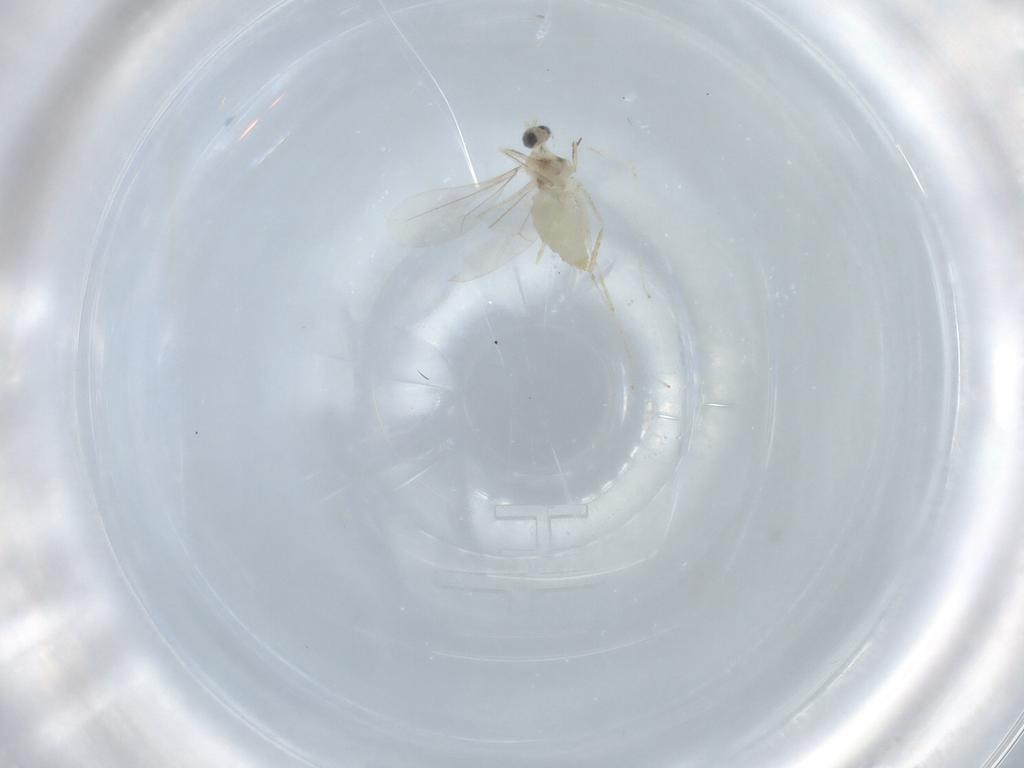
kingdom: Animalia
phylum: Arthropoda
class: Insecta
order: Diptera
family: Cecidomyiidae
